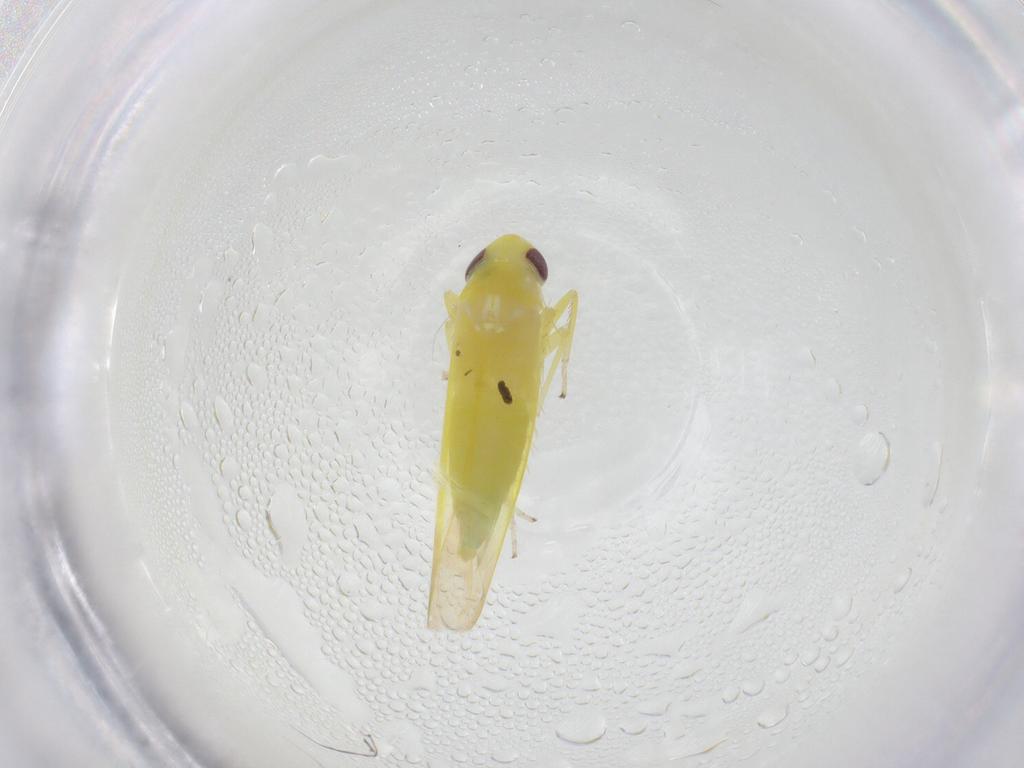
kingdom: Animalia
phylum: Arthropoda
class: Insecta
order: Hemiptera
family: Cicadellidae
